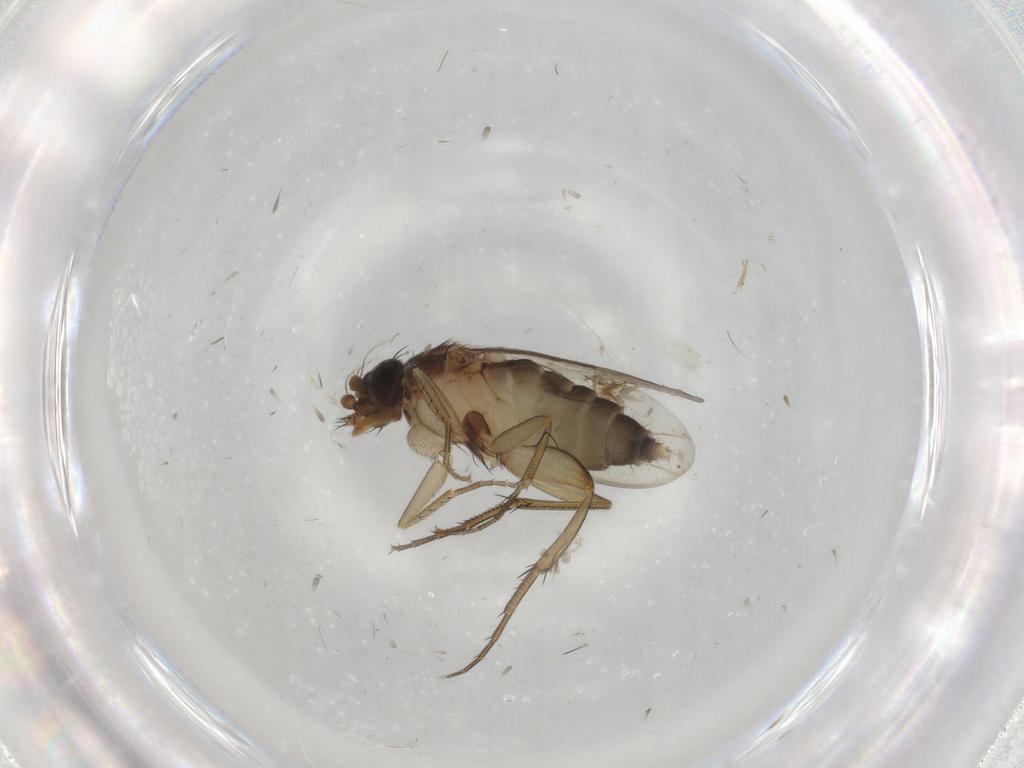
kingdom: Animalia
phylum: Arthropoda
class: Insecta
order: Diptera
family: Phoridae
